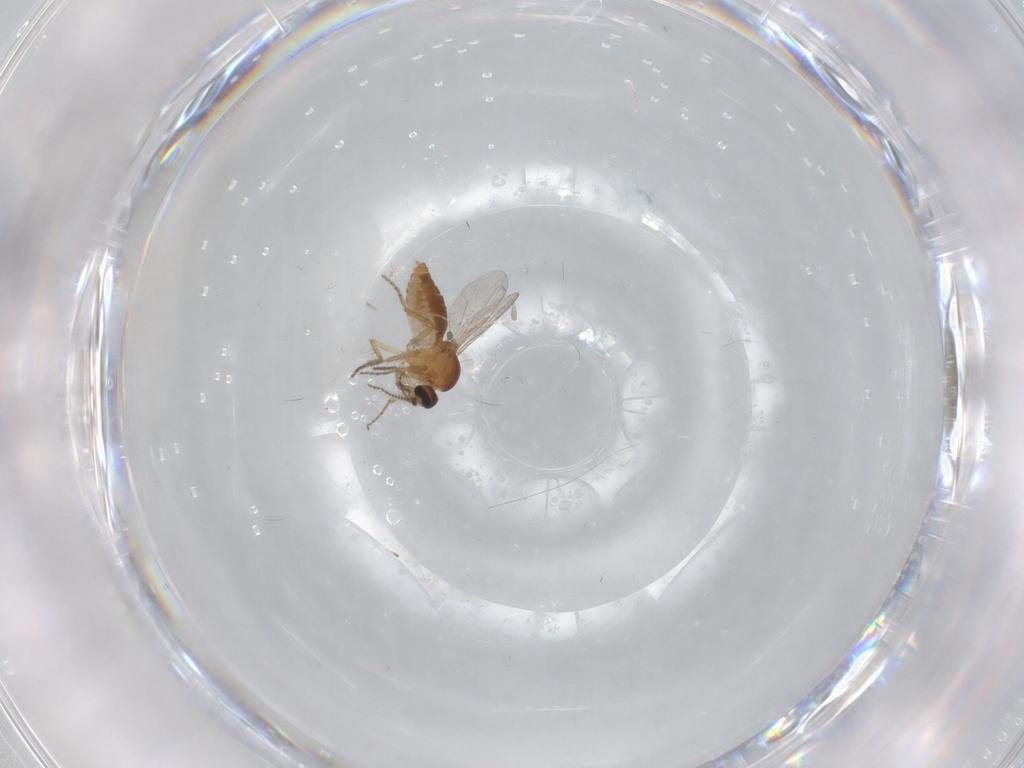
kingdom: Animalia
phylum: Arthropoda
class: Insecta
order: Diptera
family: Ceratopogonidae
